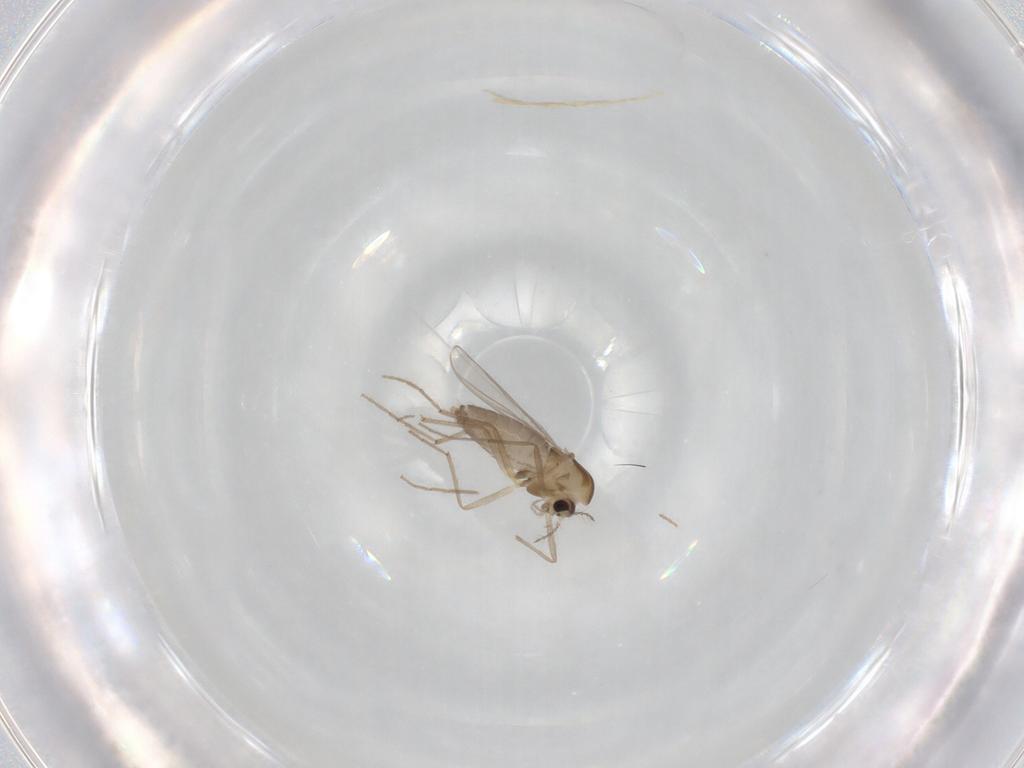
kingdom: Animalia
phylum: Arthropoda
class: Insecta
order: Diptera
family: Chironomidae
